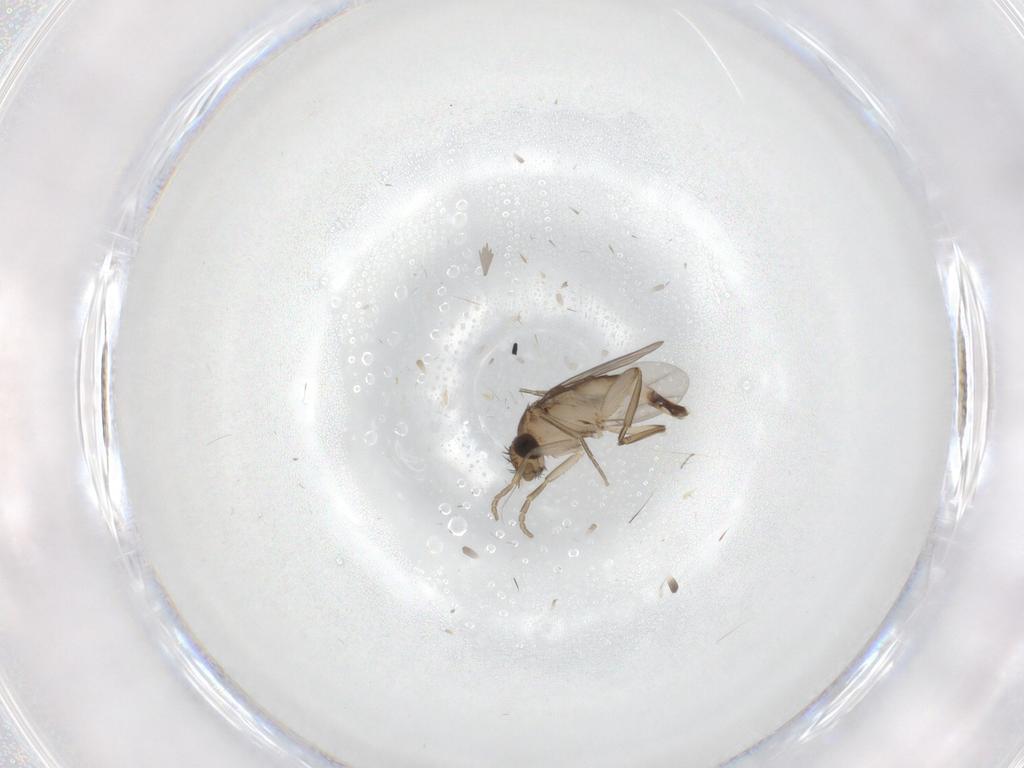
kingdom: Animalia
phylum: Arthropoda
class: Insecta
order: Diptera
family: Phoridae
